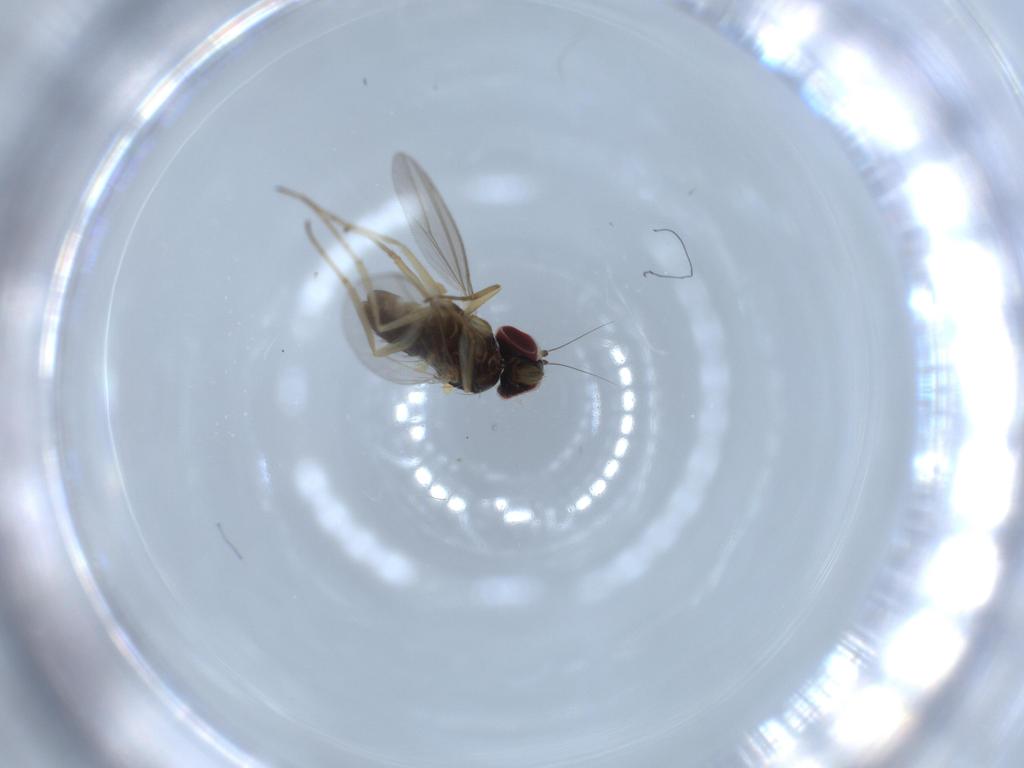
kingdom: Animalia
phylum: Arthropoda
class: Insecta
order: Diptera
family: Dolichopodidae
